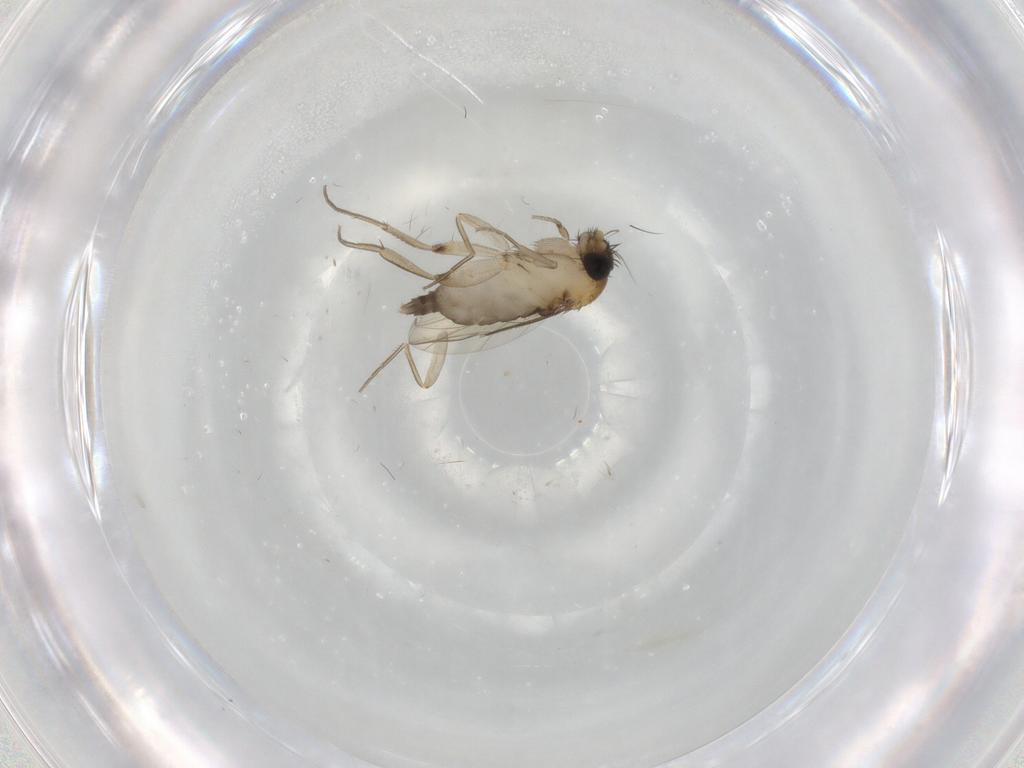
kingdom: Animalia
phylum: Arthropoda
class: Insecta
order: Diptera
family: Phoridae
